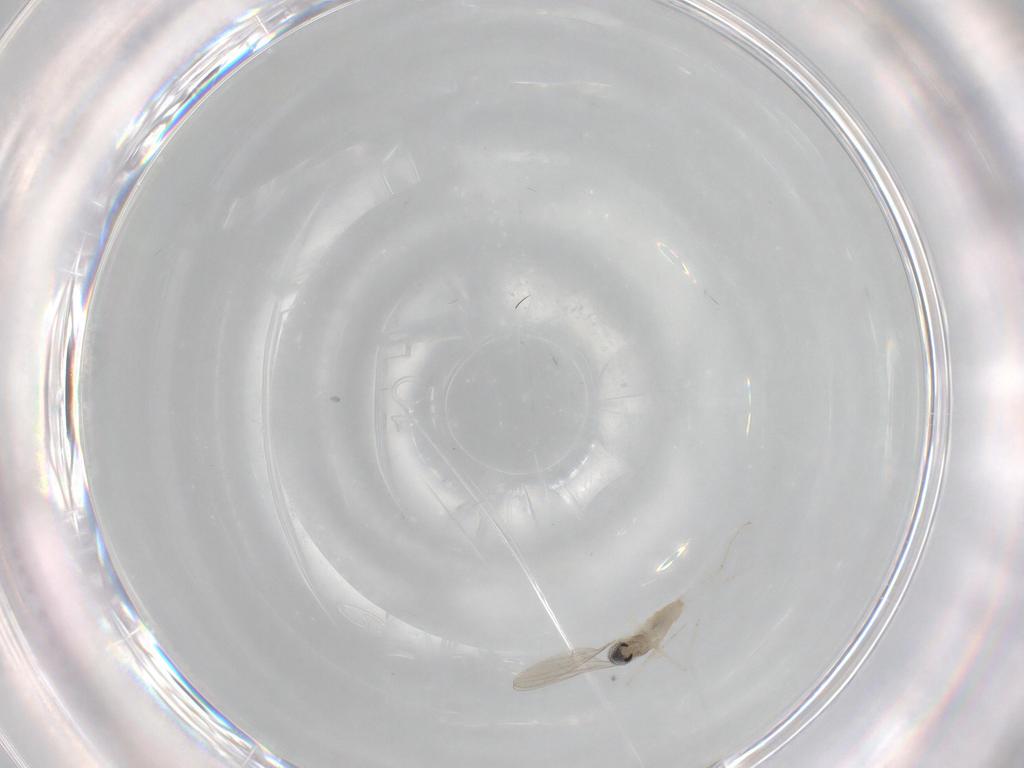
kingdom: Animalia
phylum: Arthropoda
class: Insecta
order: Diptera
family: Chironomidae
